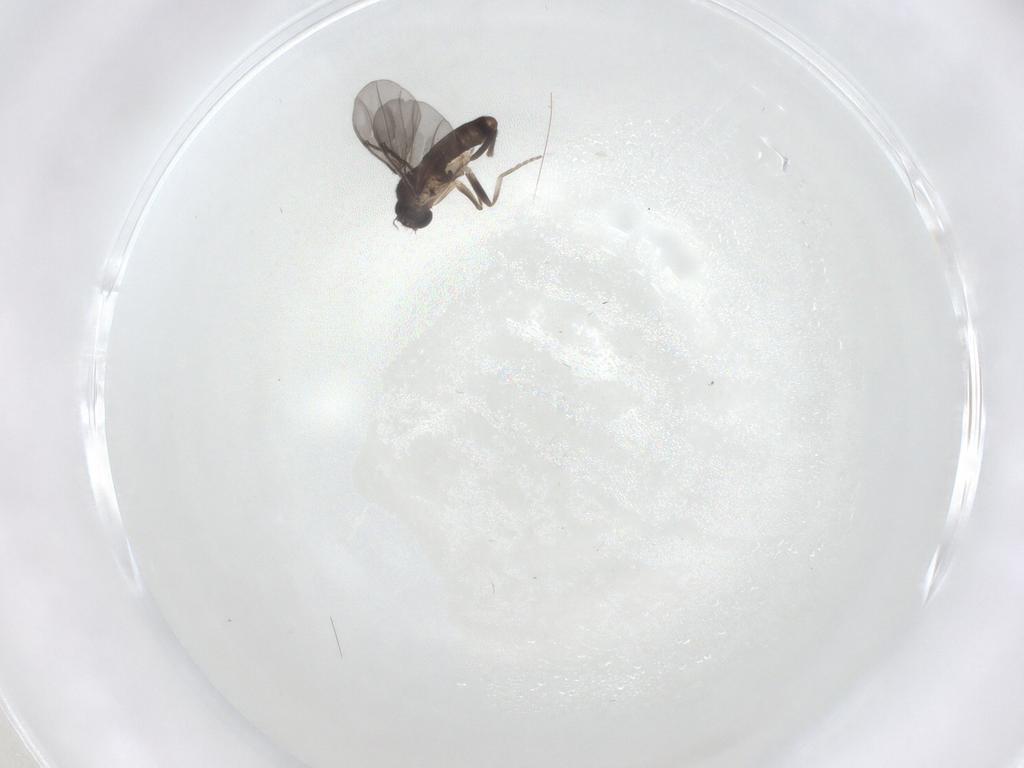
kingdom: Animalia
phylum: Arthropoda
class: Insecta
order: Diptera
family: Phoridae
